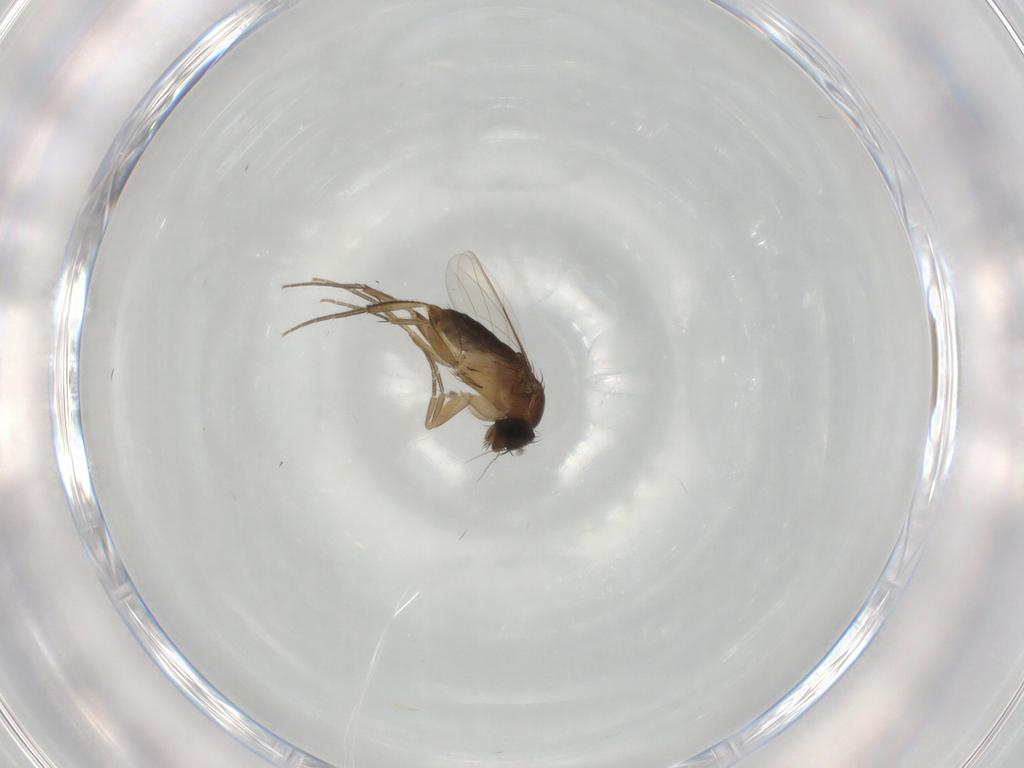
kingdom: Animalia
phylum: Arthropoda
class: Insecta
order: Diptera
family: Phoridae
